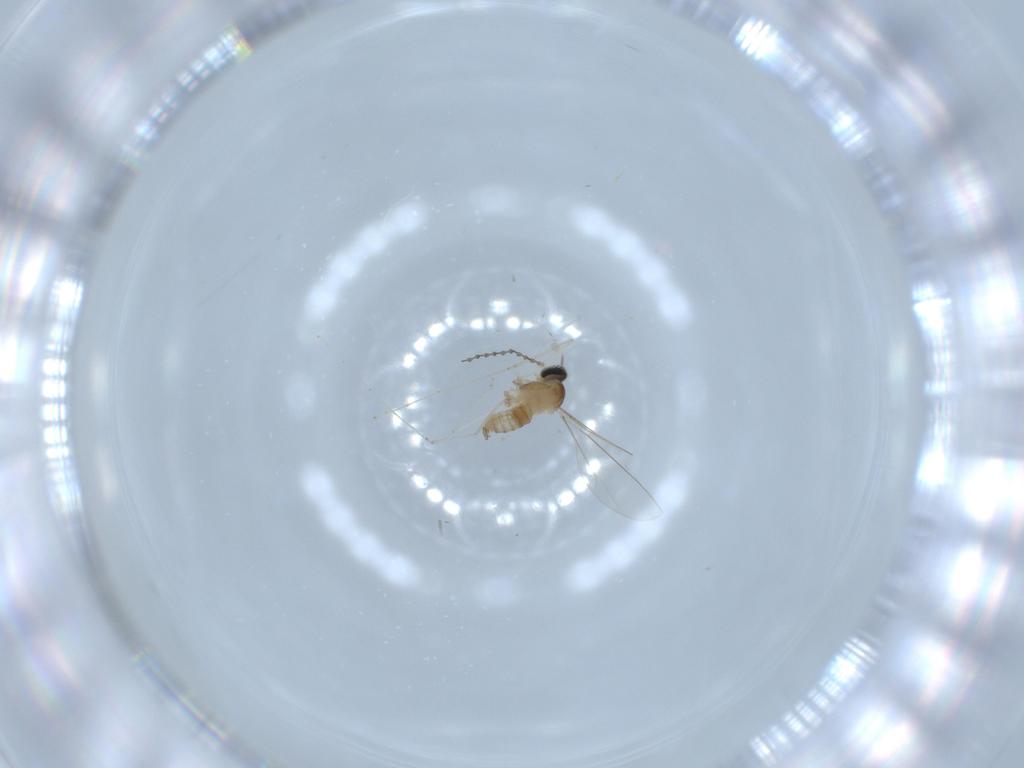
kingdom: Animalia
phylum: Arthropoda
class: Insecta
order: Diptera
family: Cecidomyiidae
